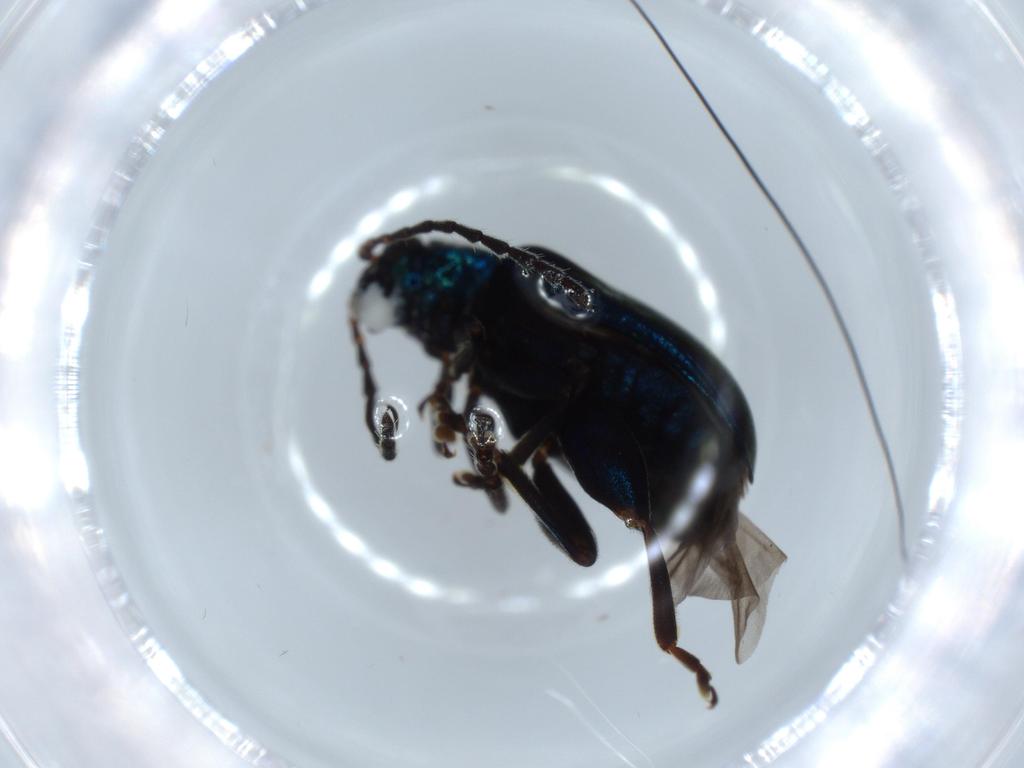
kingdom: Animalia
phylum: Arthropoda
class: Insecta
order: Coleoptera
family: Chrysomelidae
